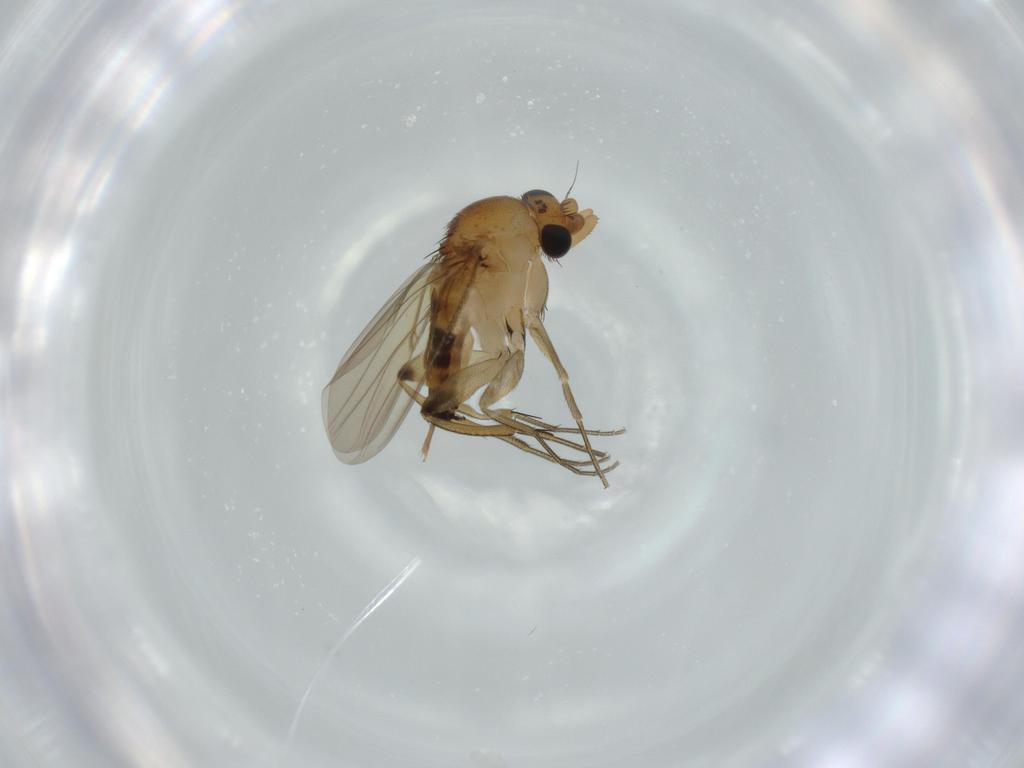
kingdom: Animalia
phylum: Arthropoda
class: Insecta
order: Diptera
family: Phoridae
